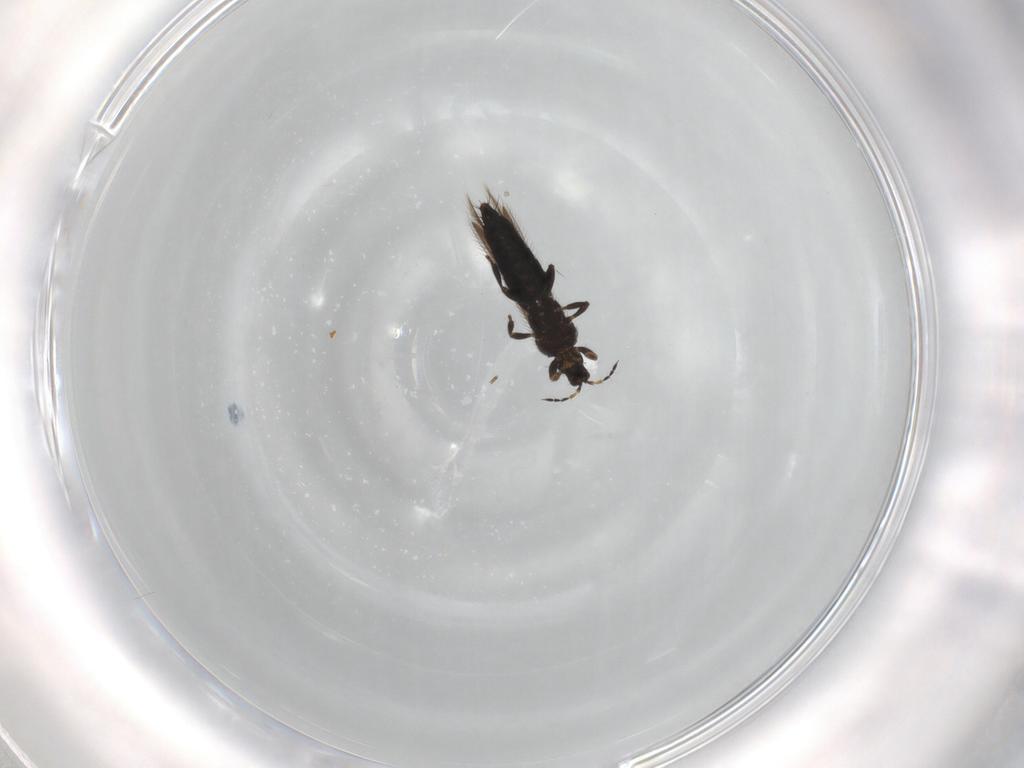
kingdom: Animalia
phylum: Arthropoda
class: Insecta
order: Thysanoptera
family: Thripidae
